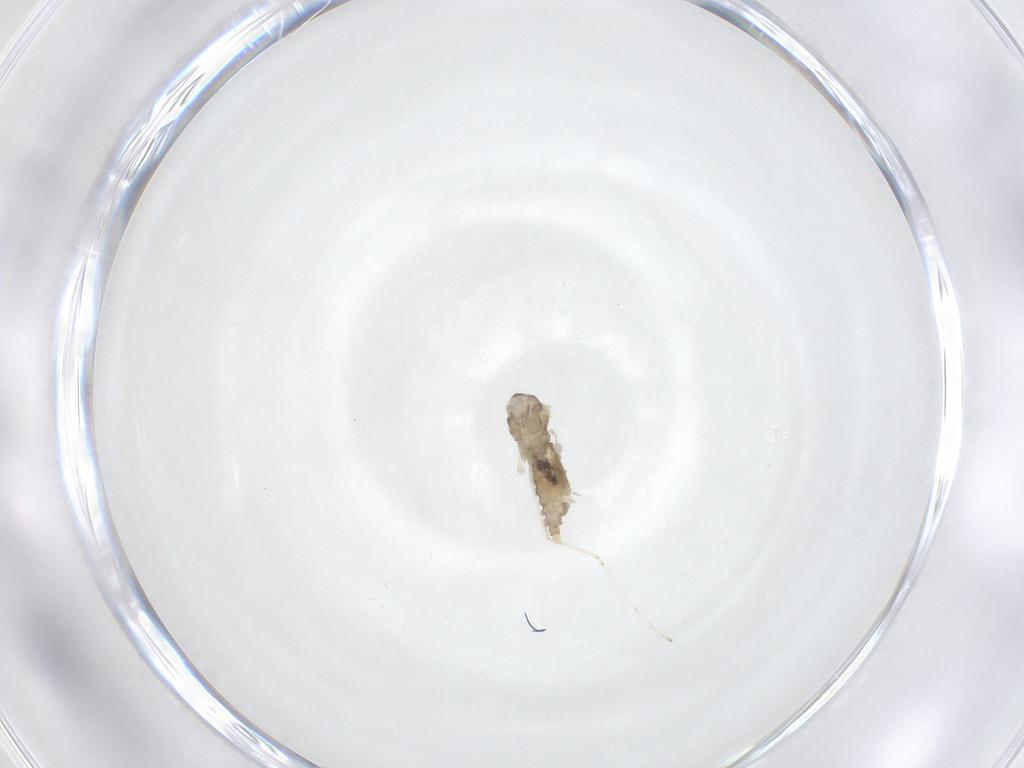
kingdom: Animalia
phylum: Arthropoda
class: Insecta
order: Diptera
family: Cecidomyiidae
